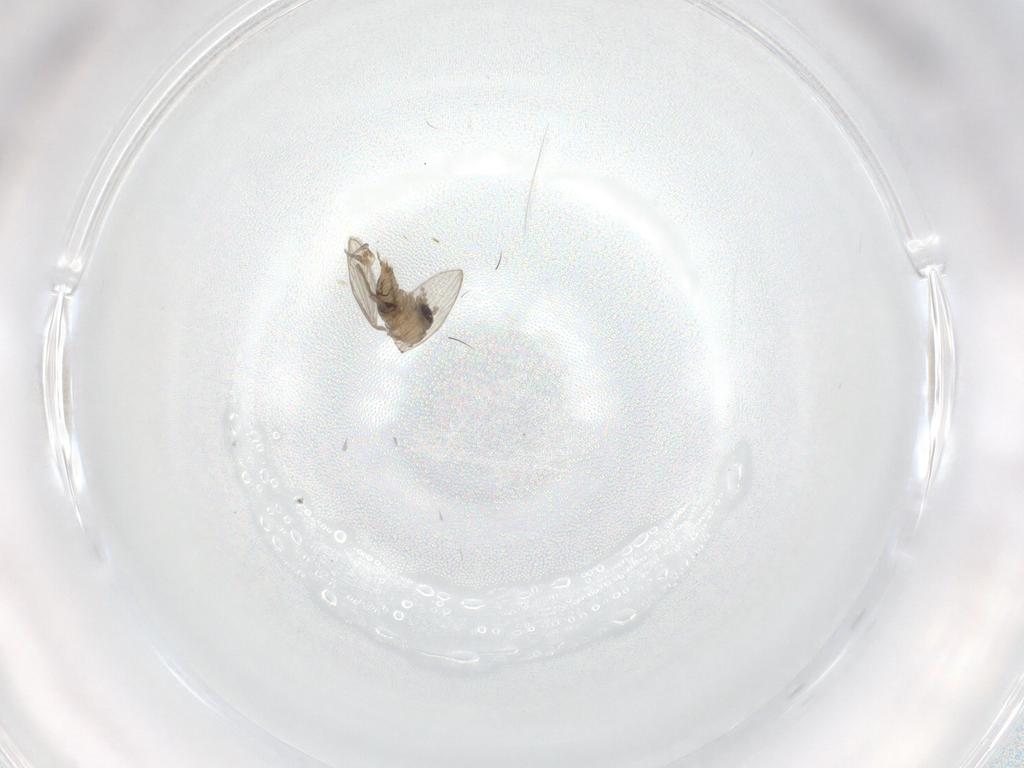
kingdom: Animalia
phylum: Arthropoda
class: Insecta
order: Diptera
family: Psychodidae
